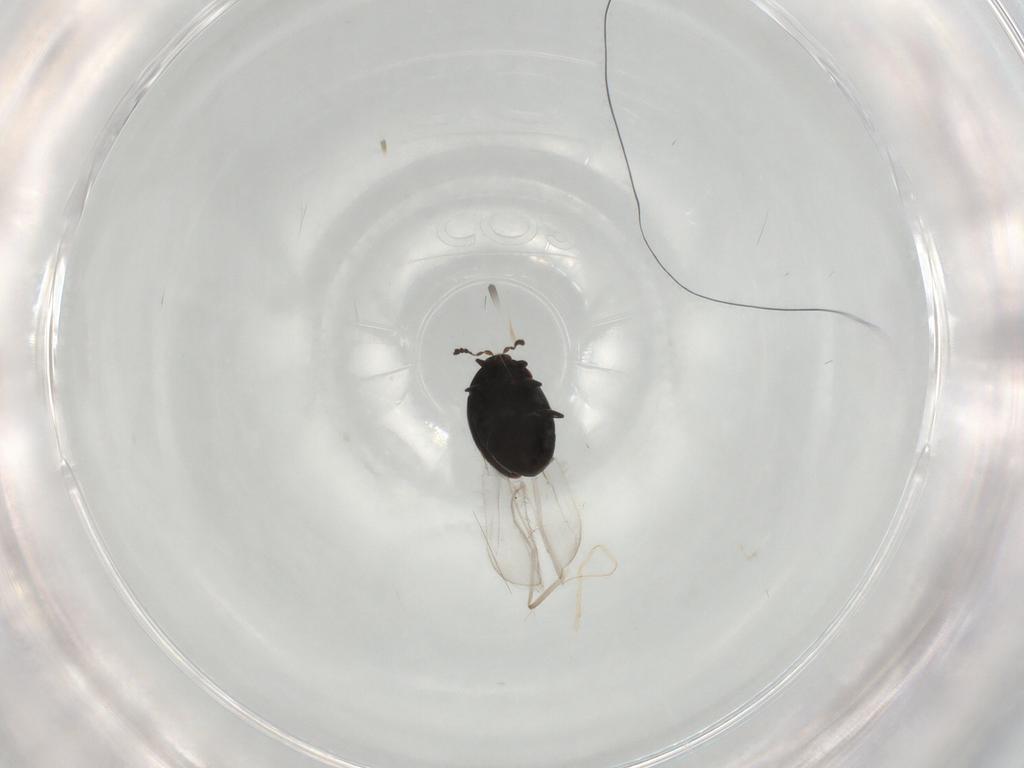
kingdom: Animalia
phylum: Arthropoda
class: Insecta
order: Coleoptera
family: Corylophidae
